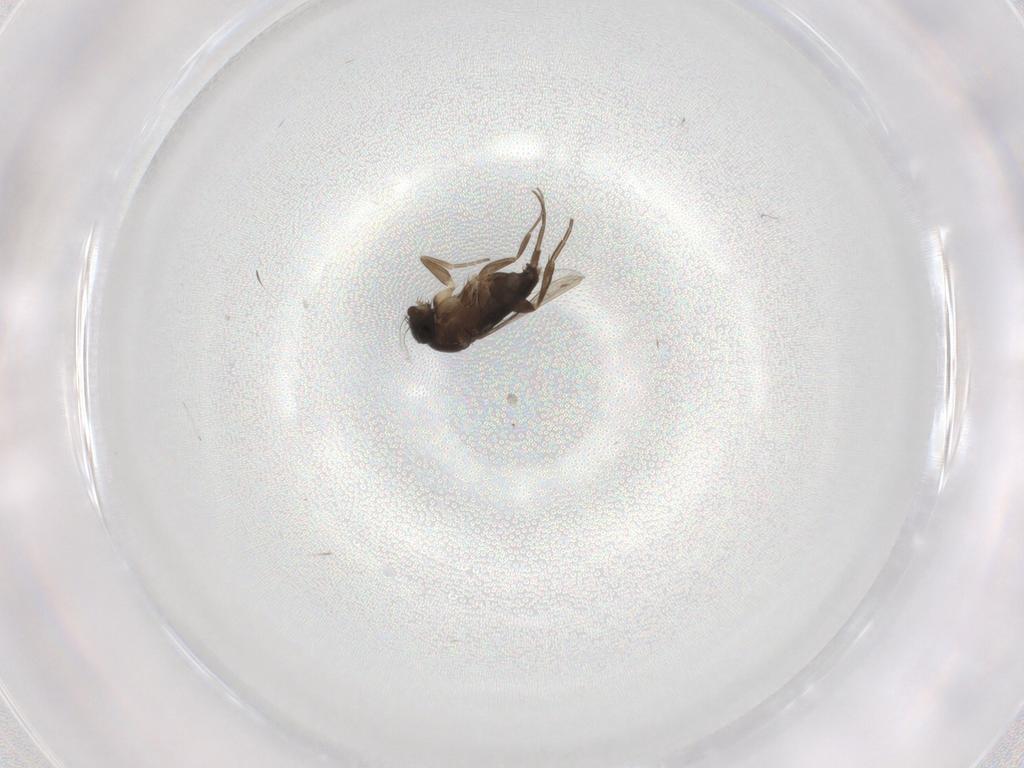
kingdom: Animalia
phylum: Arthropoda
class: Insecta
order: Diptera
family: Phoridae
